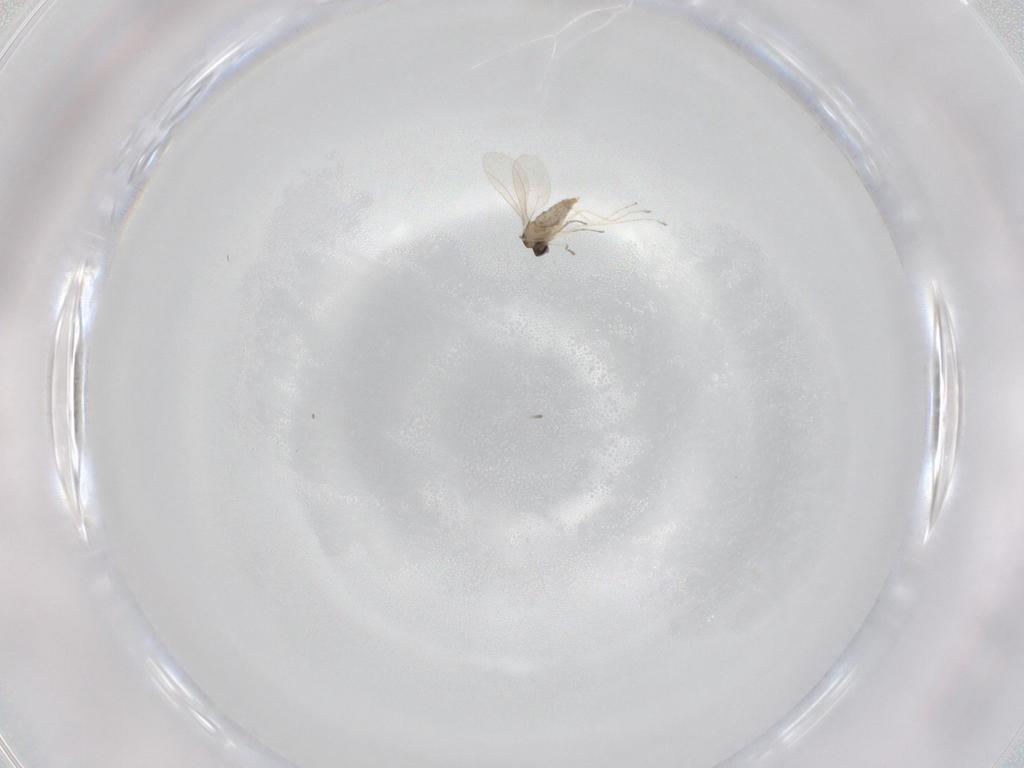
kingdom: Animalia
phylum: Arthropoda
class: Insecta
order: Diptera
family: Cecidomyiidae
